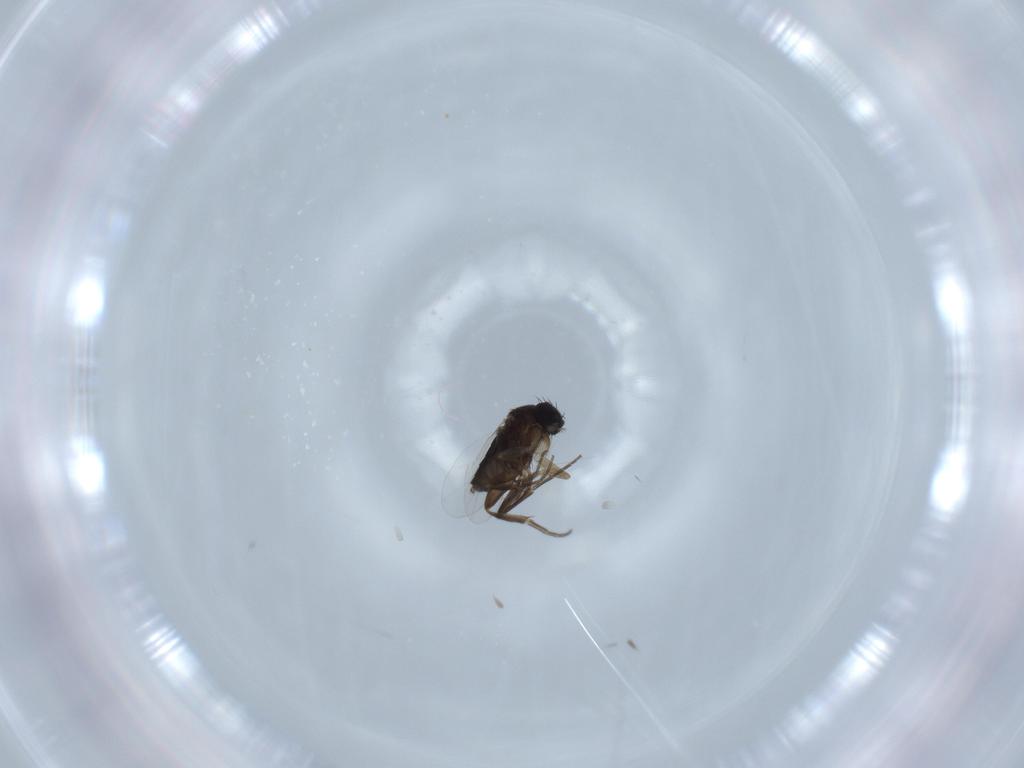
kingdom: Animalia
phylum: Arthropoda
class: Insecta
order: Diptera
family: Phoridae
